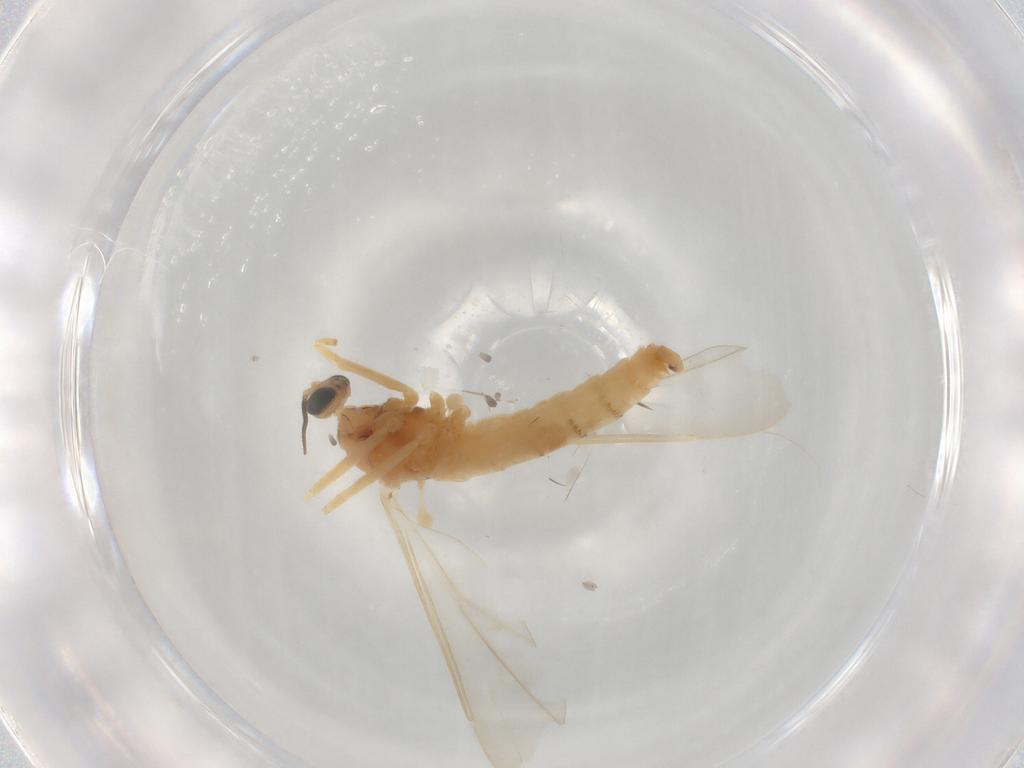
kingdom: Animalia
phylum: Arthropoda
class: Insecta
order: Diptera
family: Cecidomyiidae
